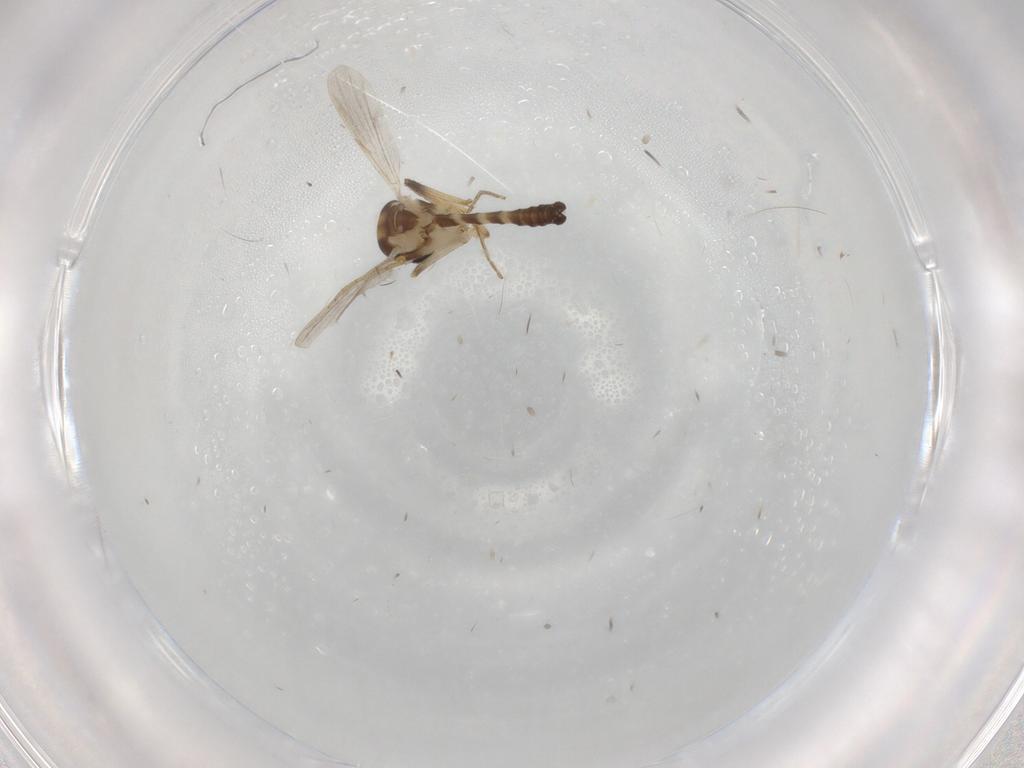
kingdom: Animalia
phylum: Arthropoda
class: Insecta
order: Diptera
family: Ceratopogonidae
